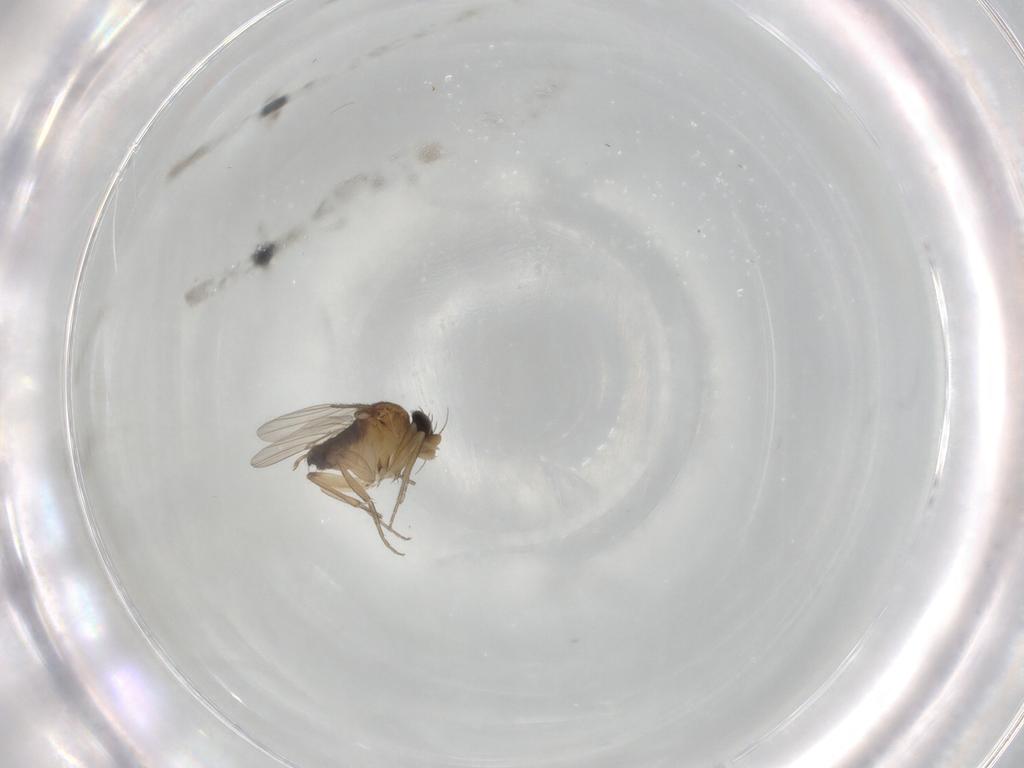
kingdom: Animalia
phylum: Arthropoda
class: Insecta
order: Diptera
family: Phoridae
